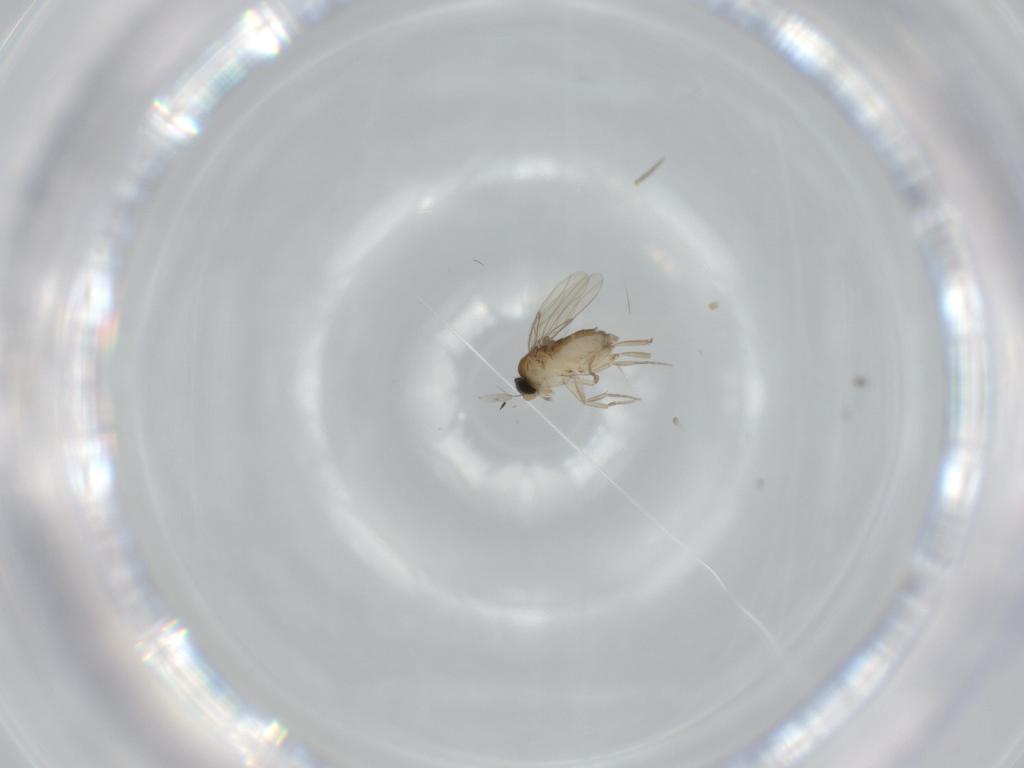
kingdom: Animalia
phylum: Arthropoda
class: Insecta
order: Diptera
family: Phoridae
